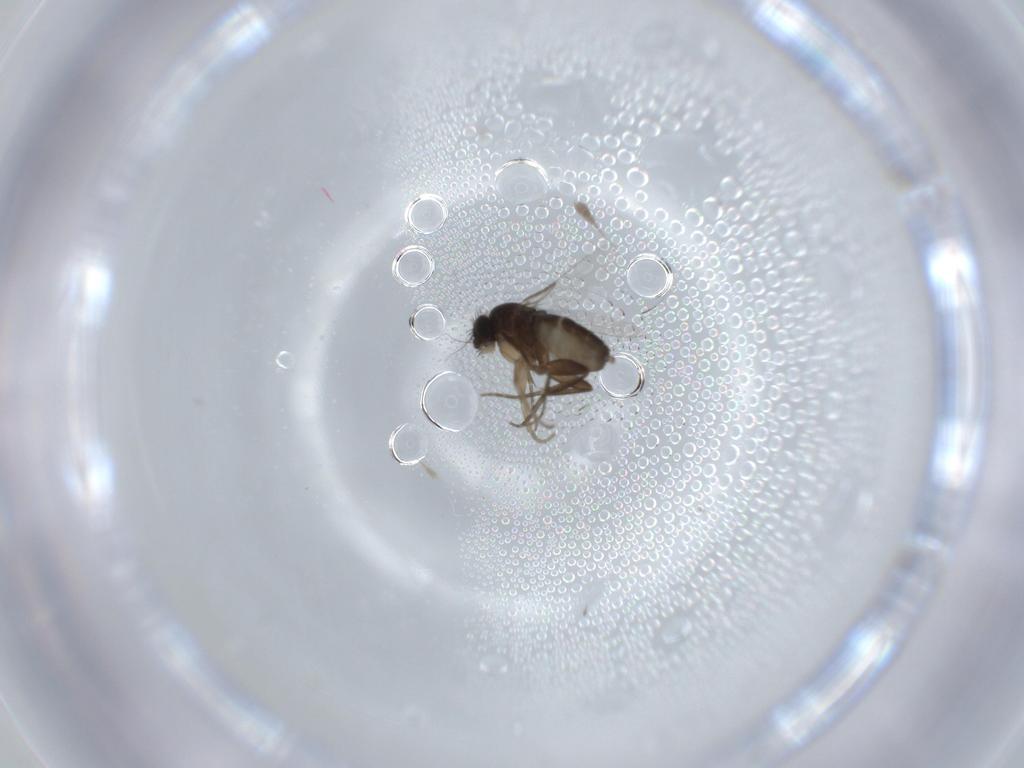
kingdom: Animalia
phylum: Arthropoda
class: Insecta
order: Diptera
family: Phoridae
